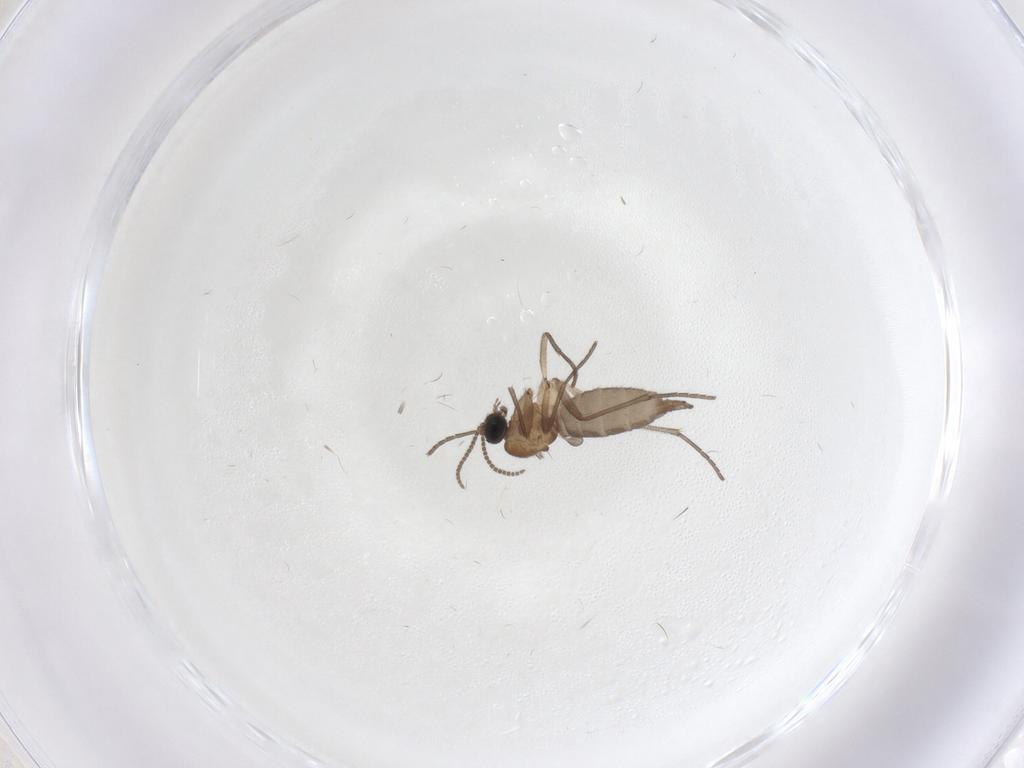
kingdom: Animalia
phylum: Arthropoda
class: Insecta
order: Diptera
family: Sciaridae
